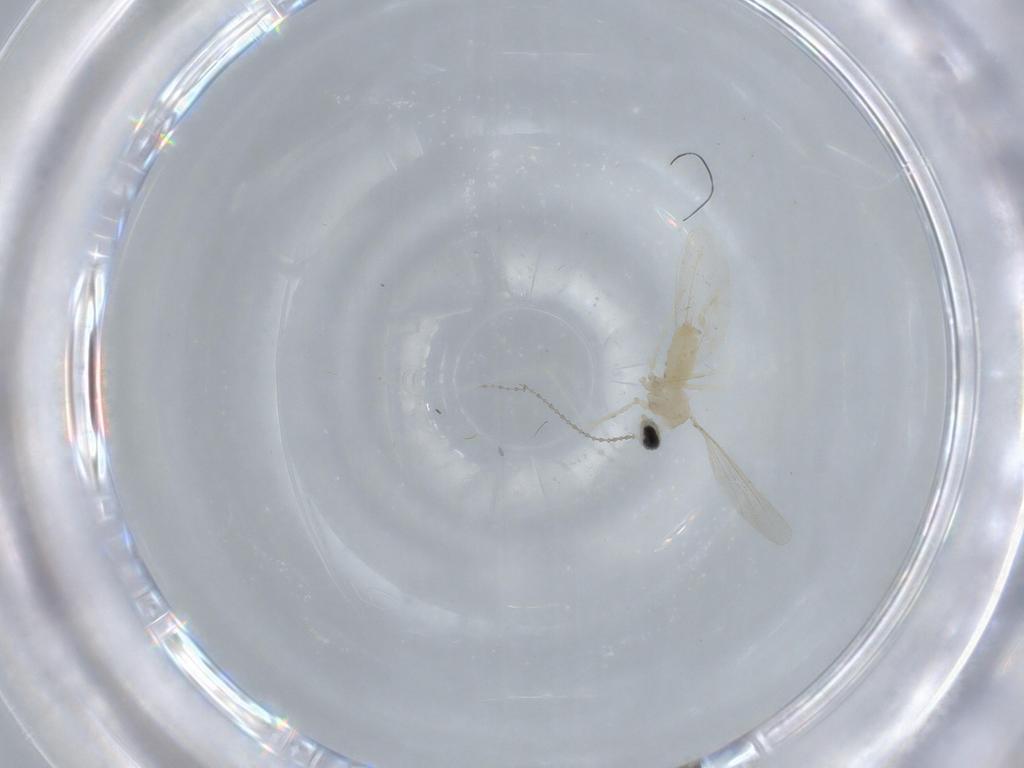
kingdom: Animalia
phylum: Arthropoda
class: Insecta
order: Diptera
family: Cecidomyiidae
